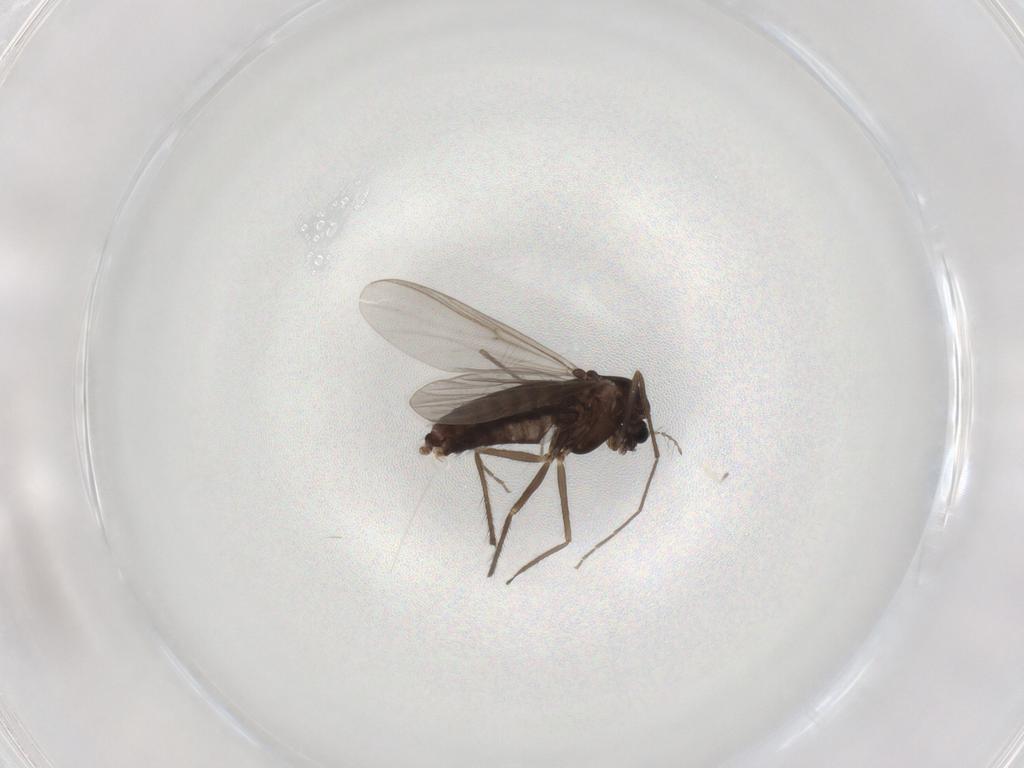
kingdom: Animalia
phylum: Arthropoda
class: Insecta
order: Diptera
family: Chironomidae
